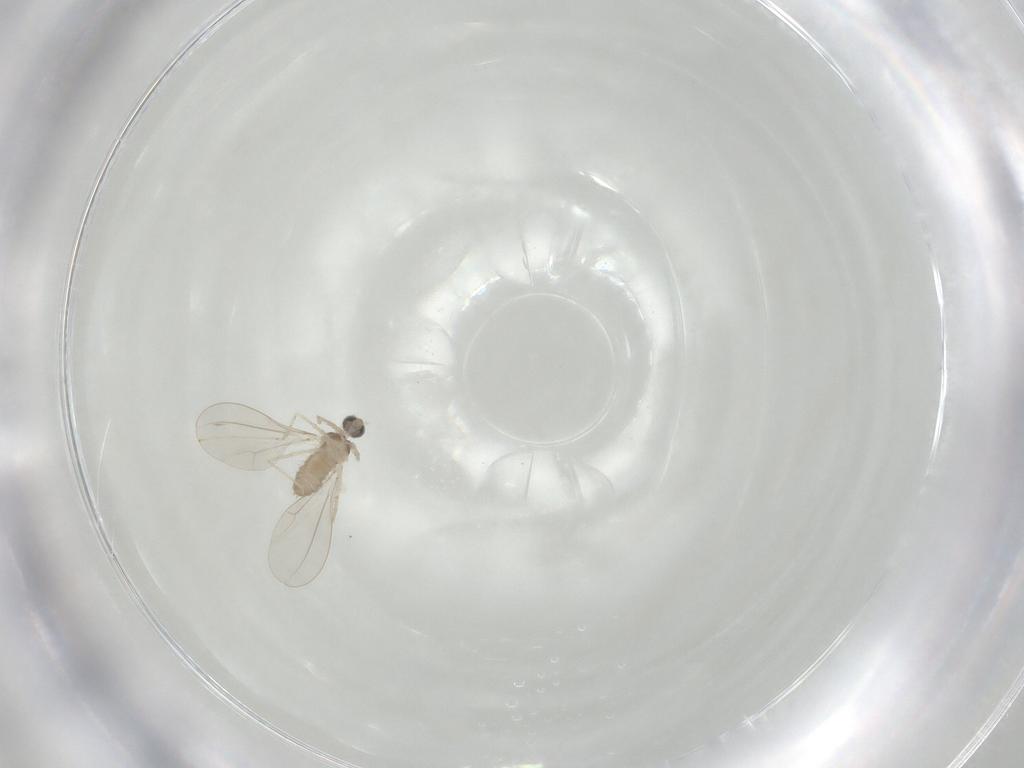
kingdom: Animalia
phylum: Arthropoda
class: Insecta
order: Diptera
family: Cecidomyiidae
